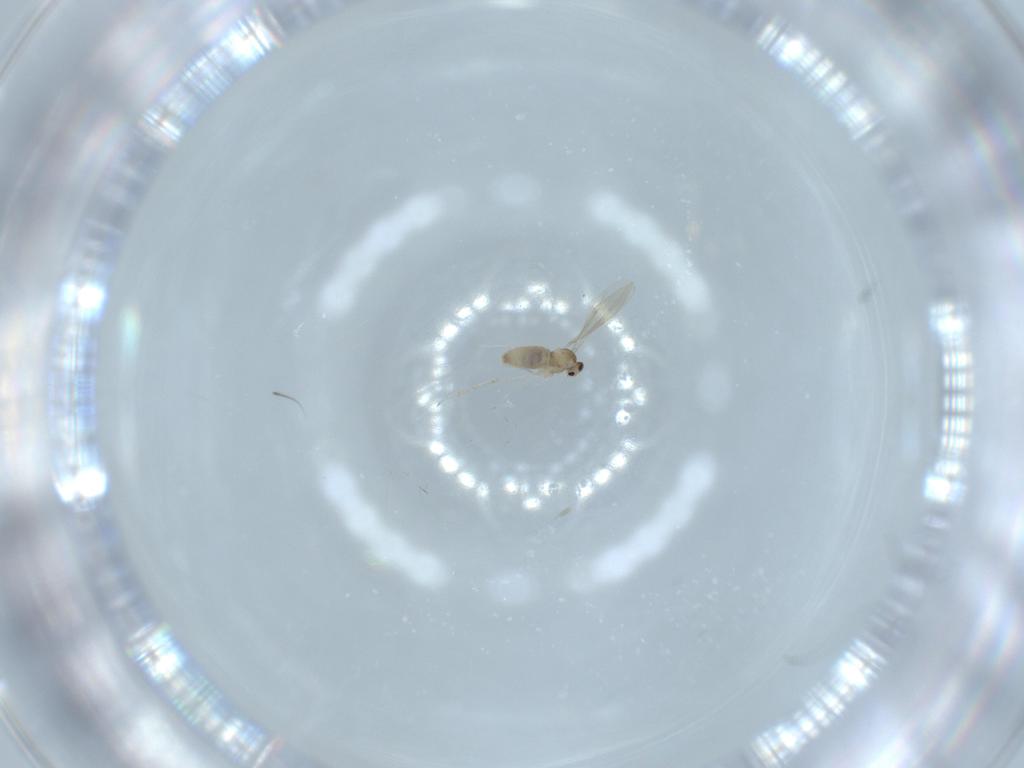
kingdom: Animalia
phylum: Arthropoda
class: Insecta
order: Diptera
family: Cecidomyiidae
